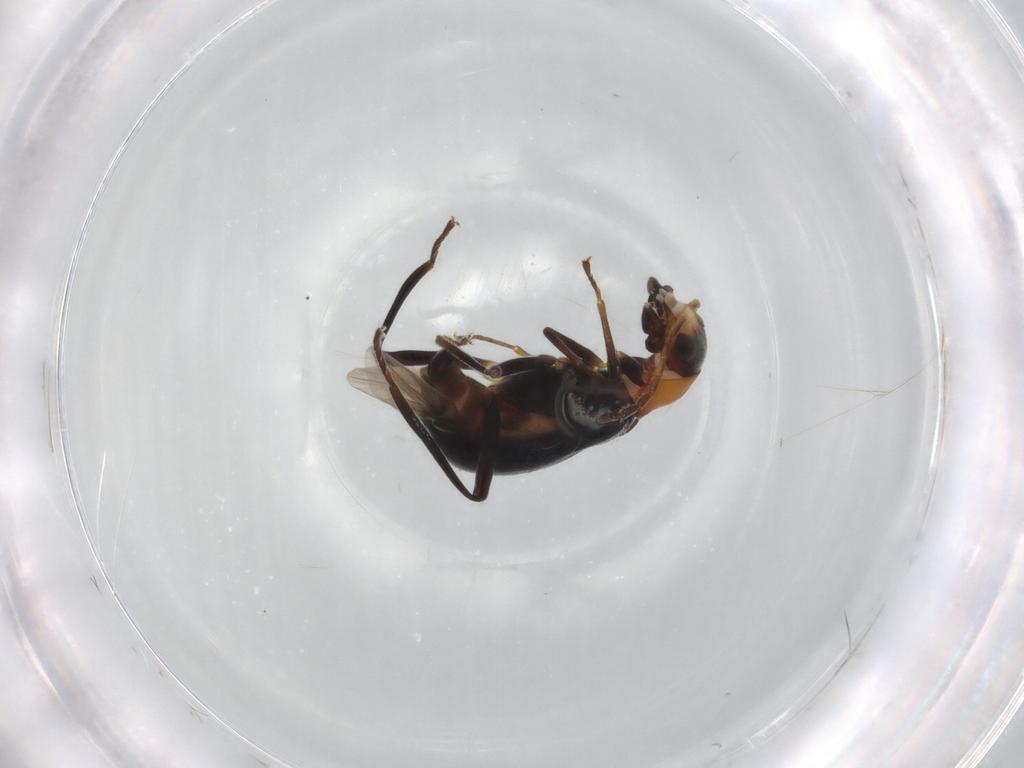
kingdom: Animalia
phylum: Arthropoda
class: Insecta
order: Coleoptera
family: Melyridae
